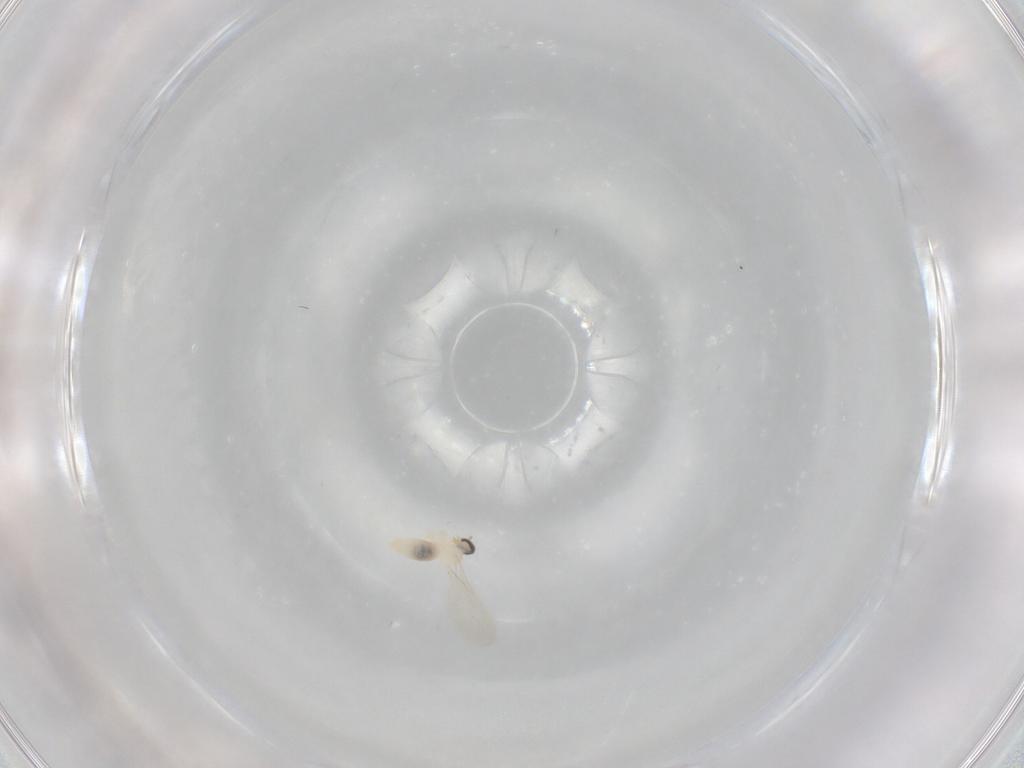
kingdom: Animalia
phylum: Arthropoda
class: Insecta
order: Diptera
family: Cecidomyiidae
